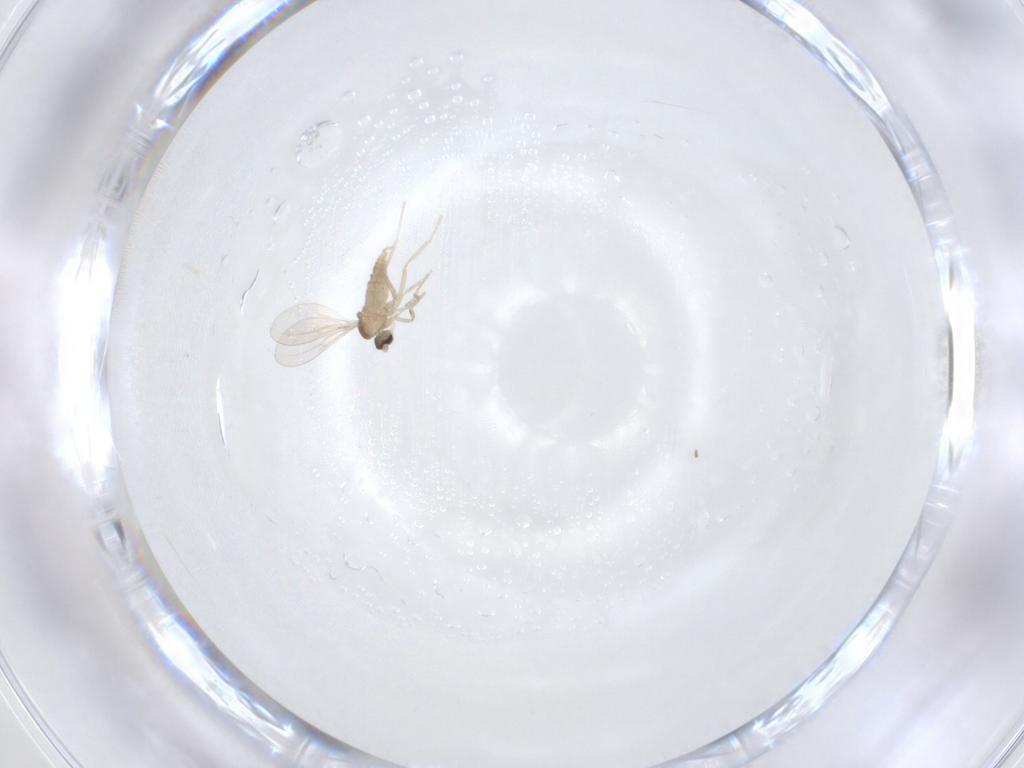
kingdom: Animalia
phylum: Arthropoda
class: Insecta
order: Diptera
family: Cecidomyiidae
